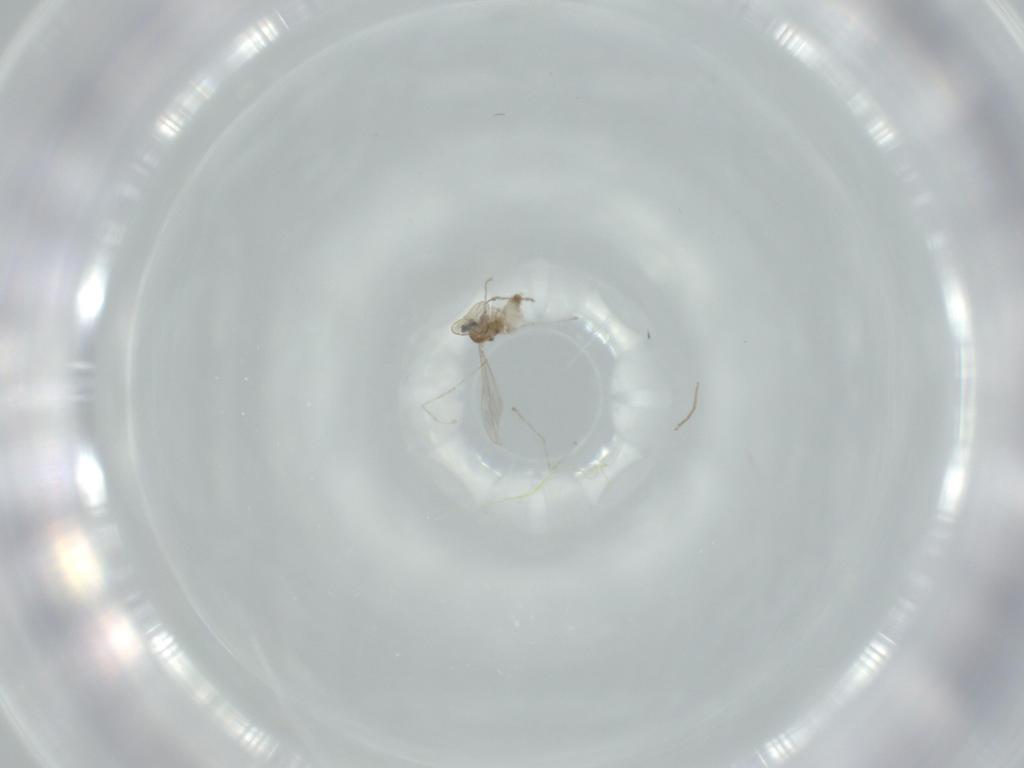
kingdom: Animalia
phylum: Arthropoda
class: Insecta
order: Diptera
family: Cecidomyiidae
